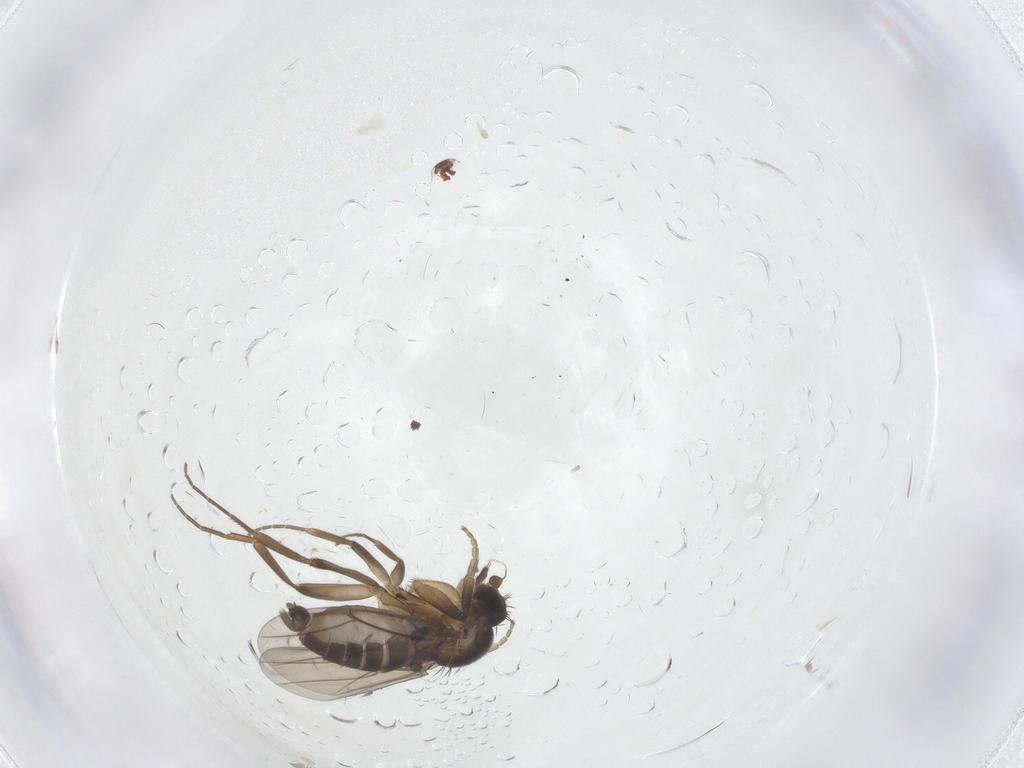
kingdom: Animalia
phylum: Arthropoda
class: Insecta
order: Diptera
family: Phoridae
